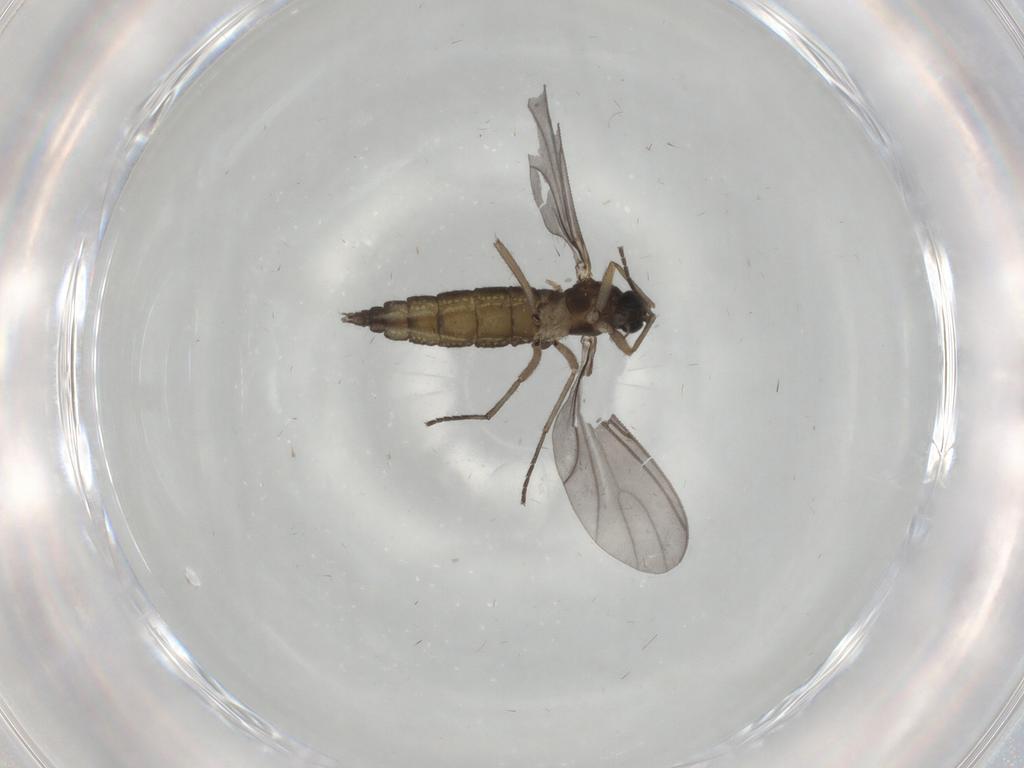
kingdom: Animalia
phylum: Arthropoda
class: Insecta
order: Diptera
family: Sciaridae
